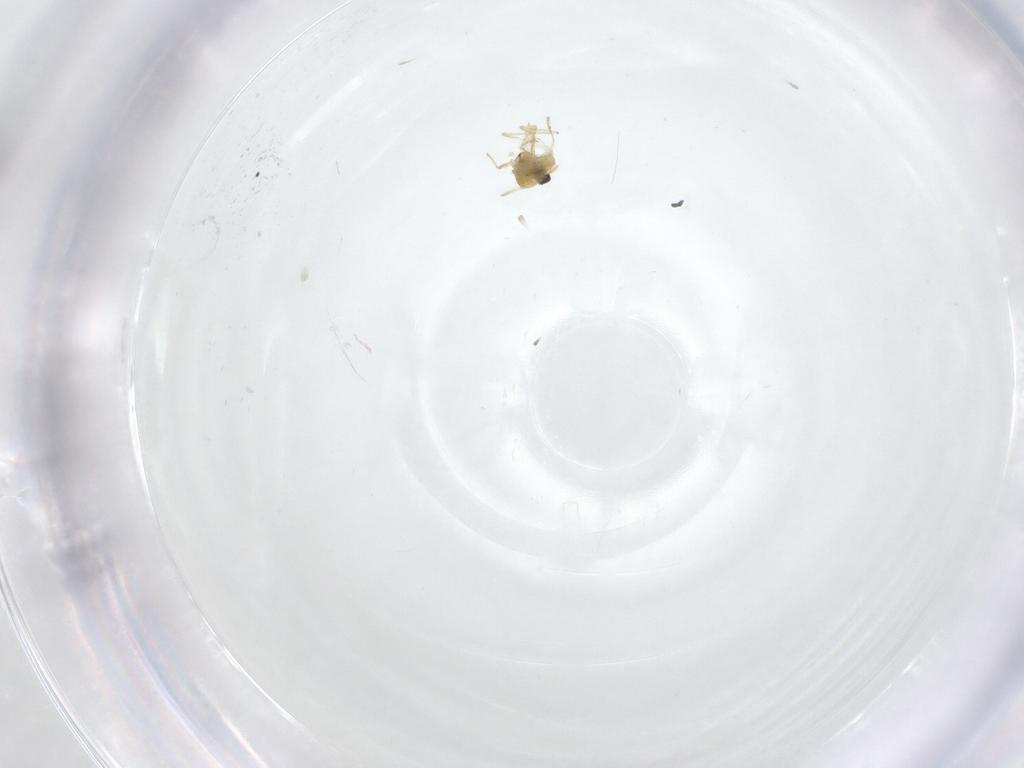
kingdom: Animalia
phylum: Arthropoda
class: Insecta
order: Diptera
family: Chironomidae
